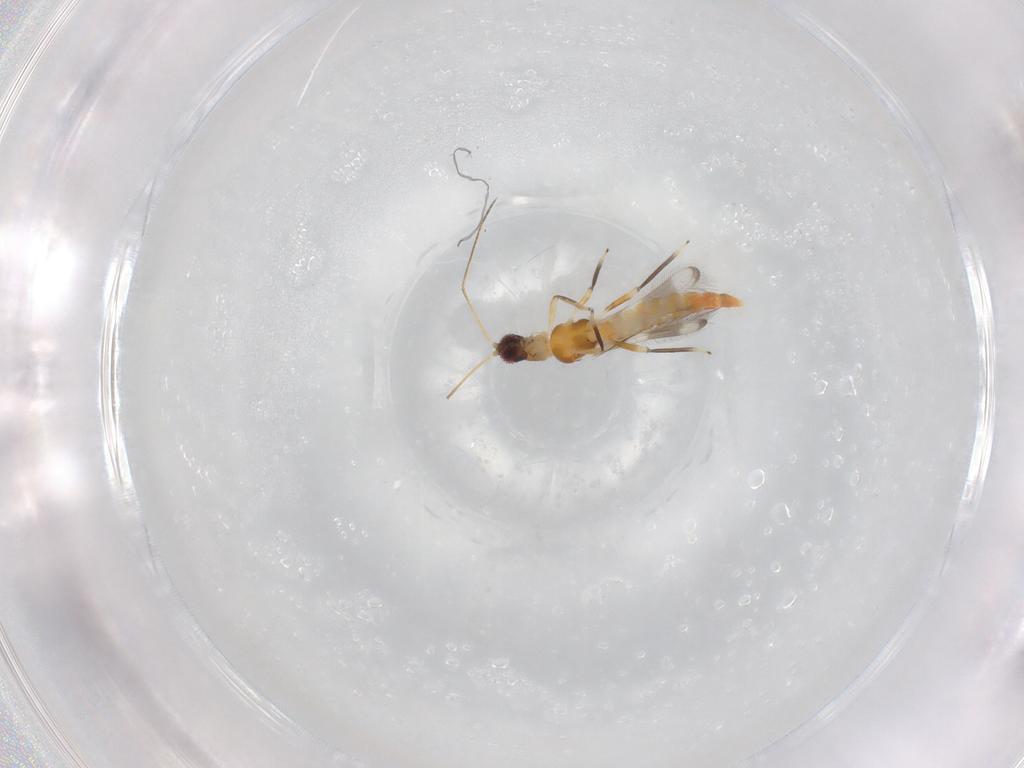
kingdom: Animalia
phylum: Arthropoda
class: Insecta
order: Thysanoptera
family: Aeolothripidae
